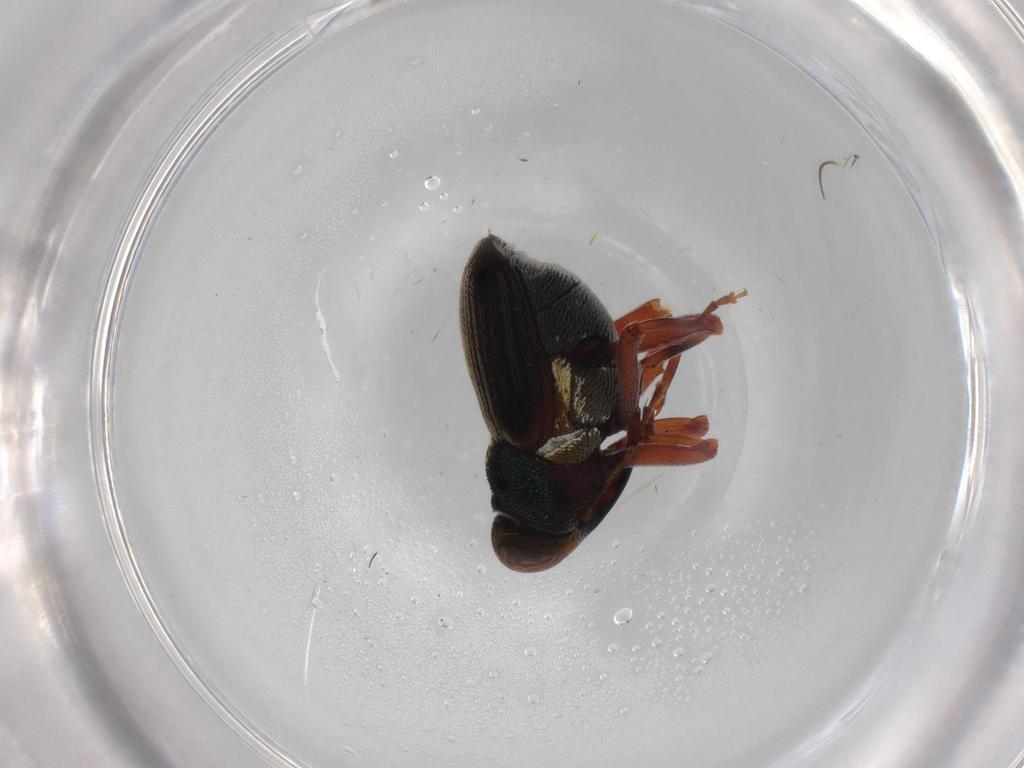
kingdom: Animalia
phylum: Arthropoda
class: Insecta
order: Coleoptera
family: Curculionidae
